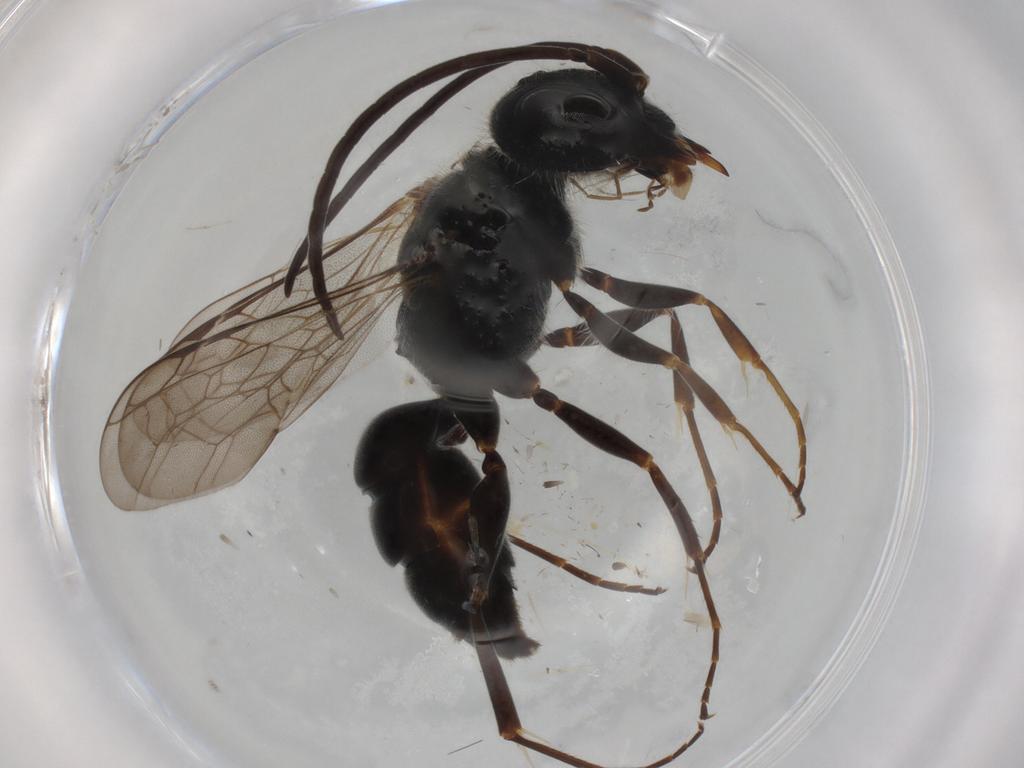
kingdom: Animalia
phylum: Arthropoda
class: Insecta
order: Hymenoptera
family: Ampulicidae
